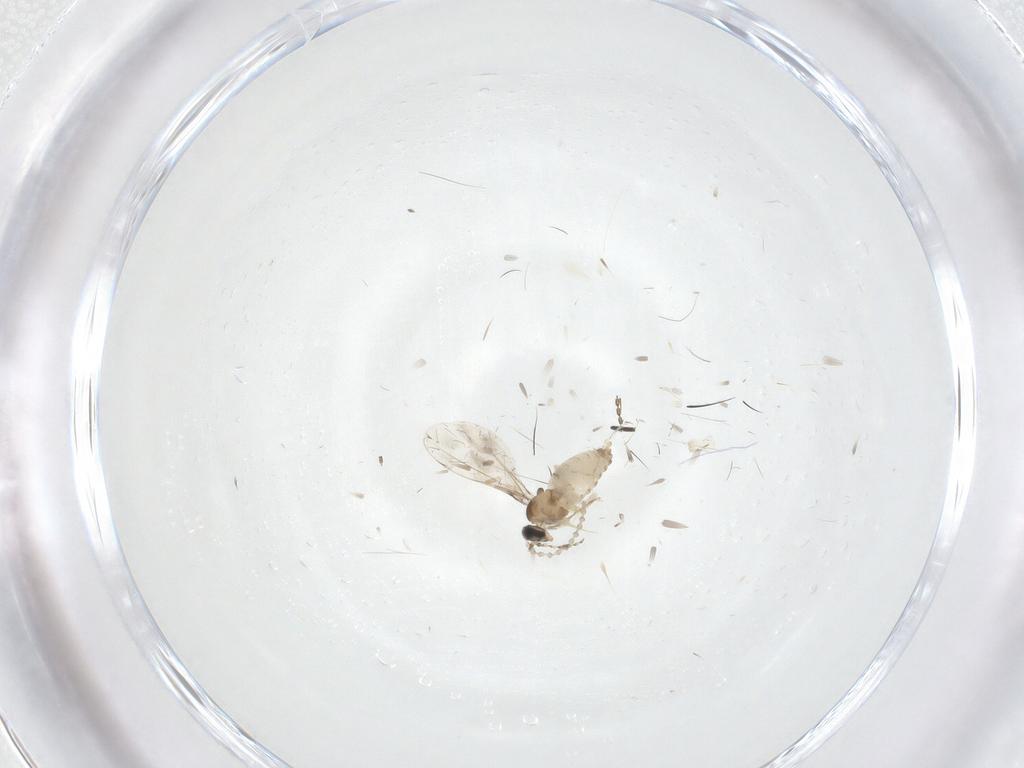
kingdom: Animalia
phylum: Arthropoda
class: Insecta
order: Diptera
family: Cecidomyiidae
